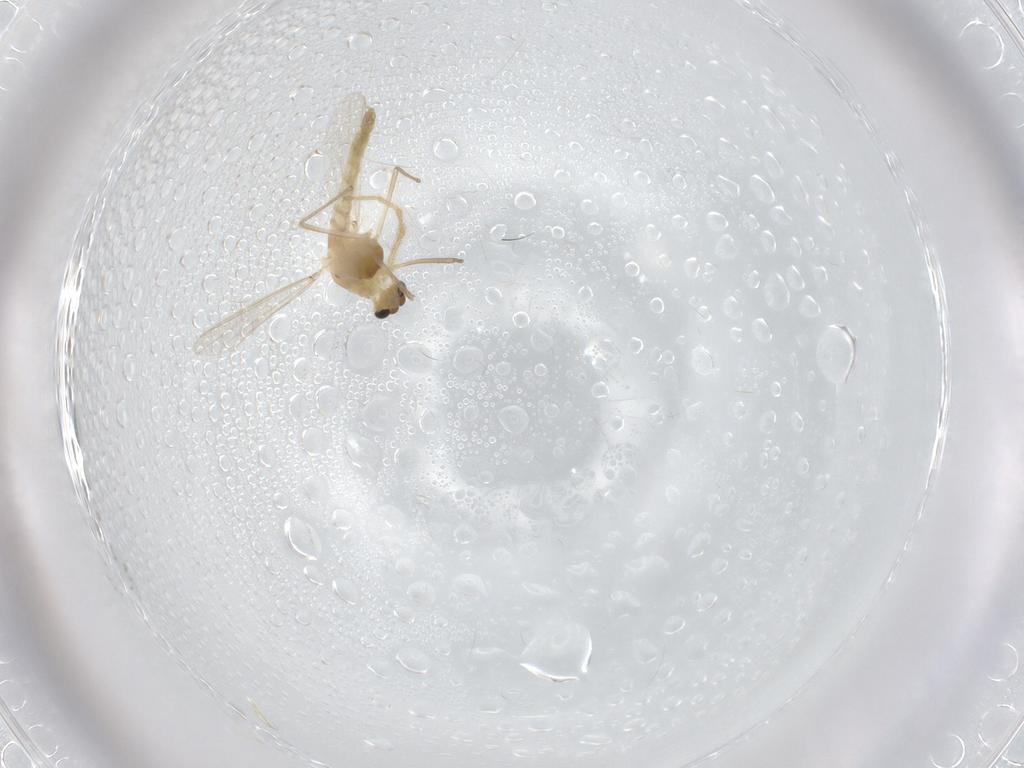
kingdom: Animalia
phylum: Arthropoda
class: Insecta
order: Diptera
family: Chironomidae
